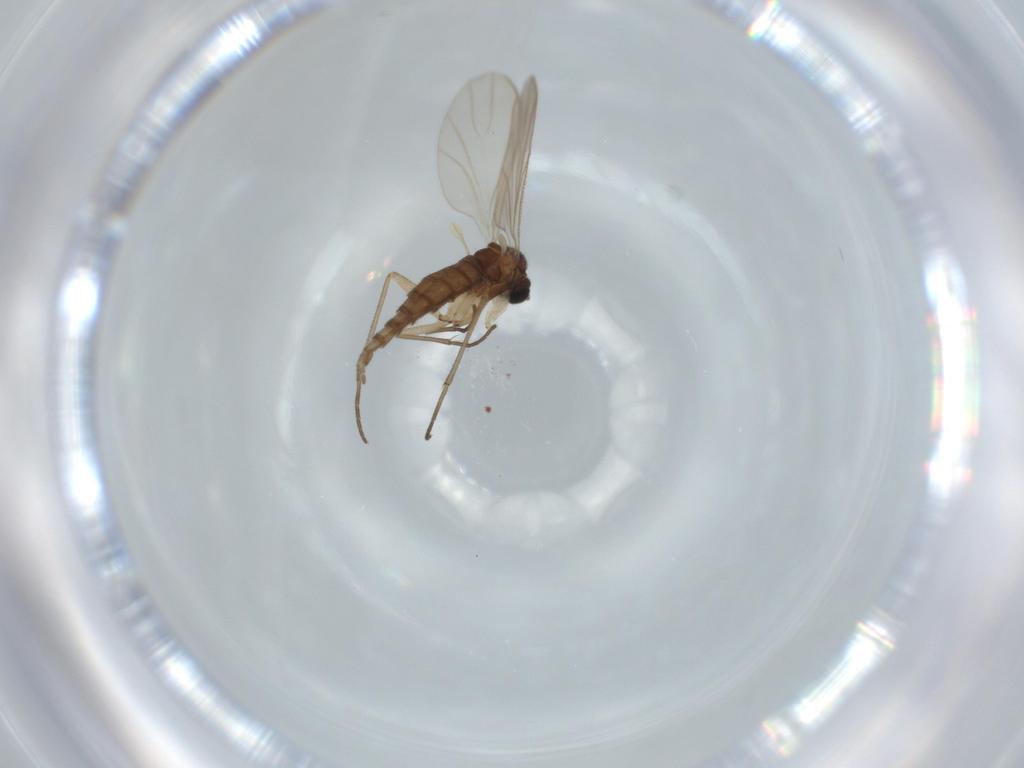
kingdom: Animalia
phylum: Arthropoda
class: Insecta
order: Diptera
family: Sciaridae
